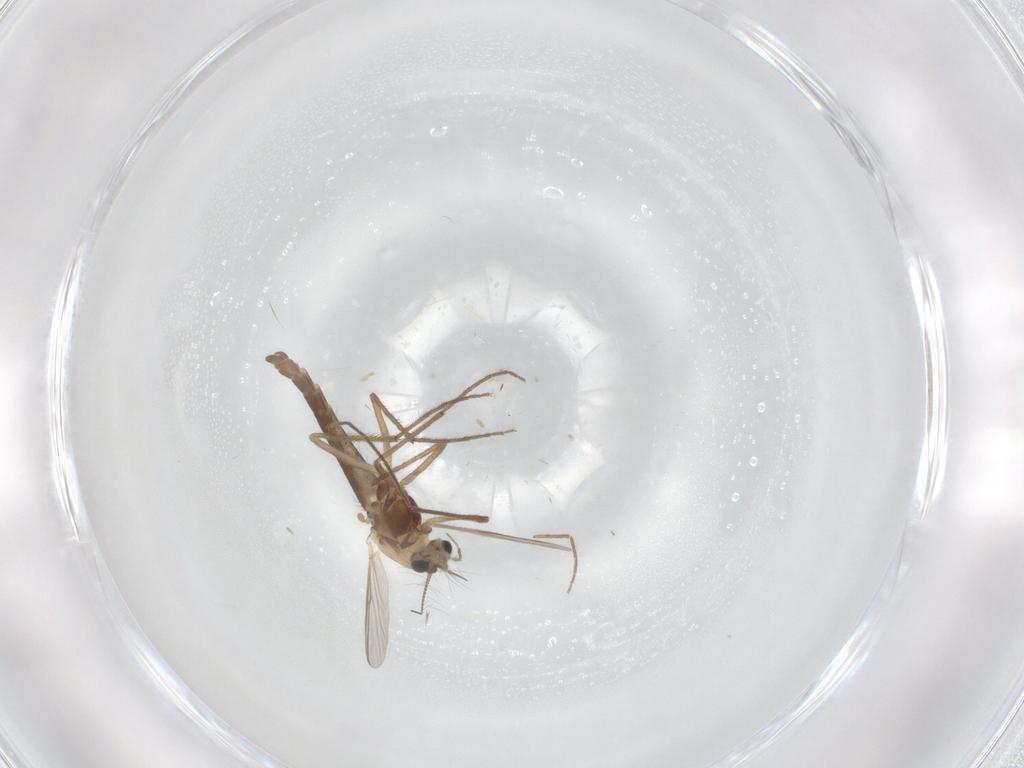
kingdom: Animalia
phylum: Arthropoda
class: Insecta
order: Diptera
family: Chironomidae
